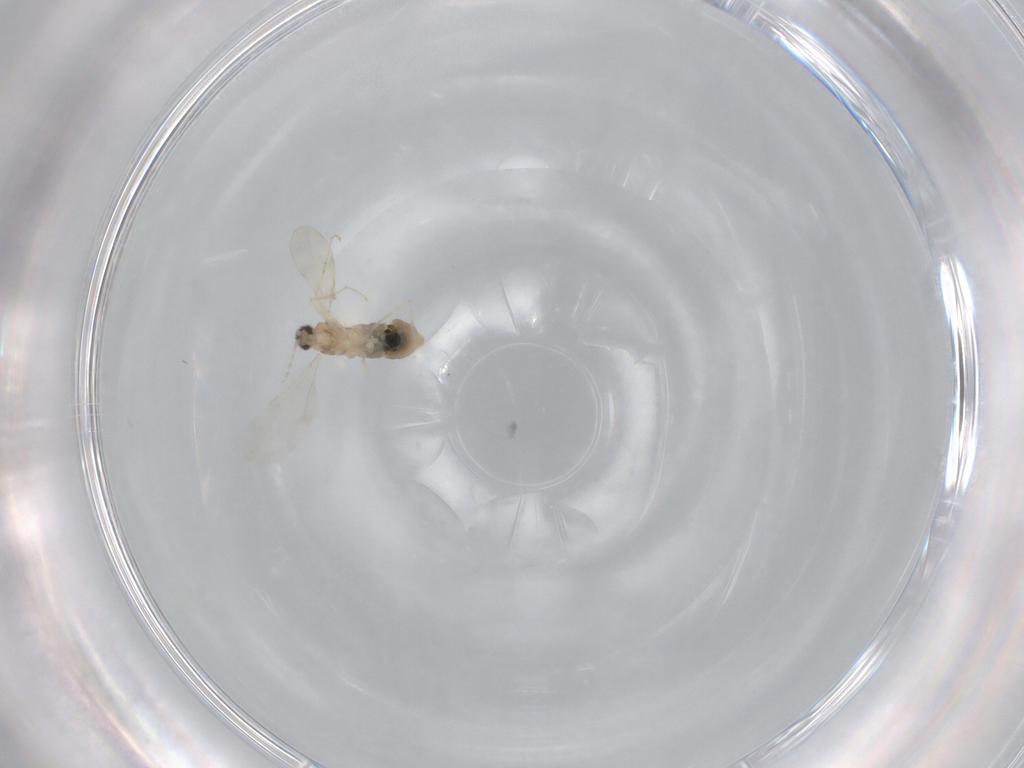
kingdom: Animalia
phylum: Arthropoda
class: Insecta
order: Diptera
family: Cecidomyiidae
